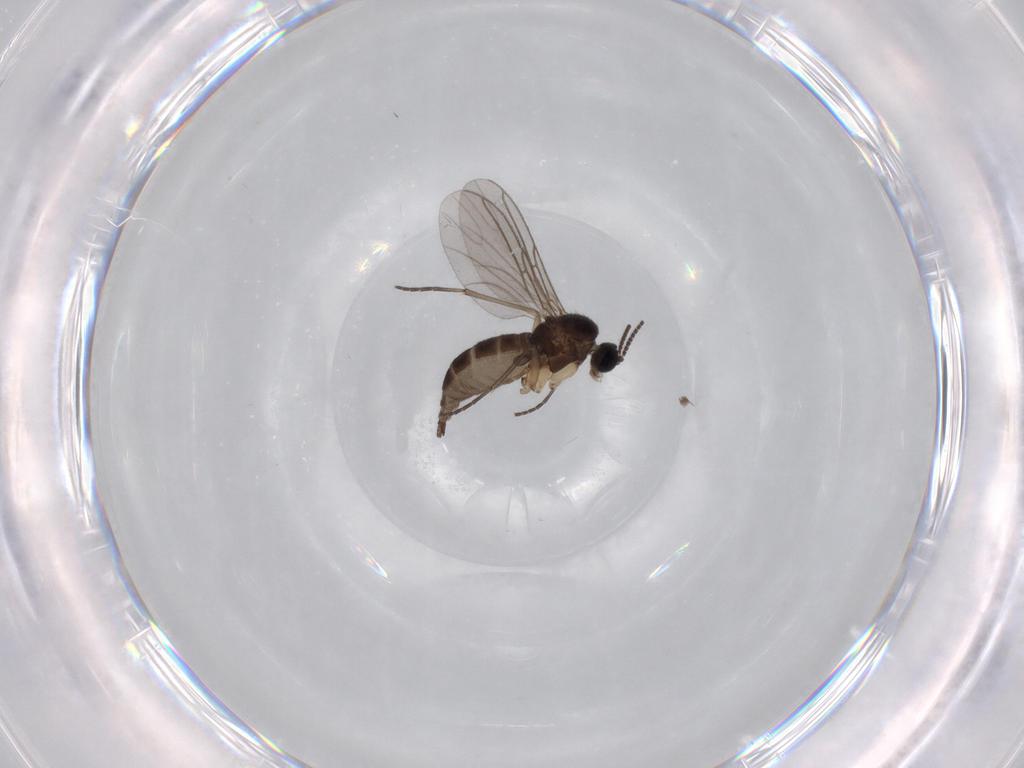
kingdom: Animalia
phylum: Arthropoda
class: Insecta
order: Diptera
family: Sciaridae
